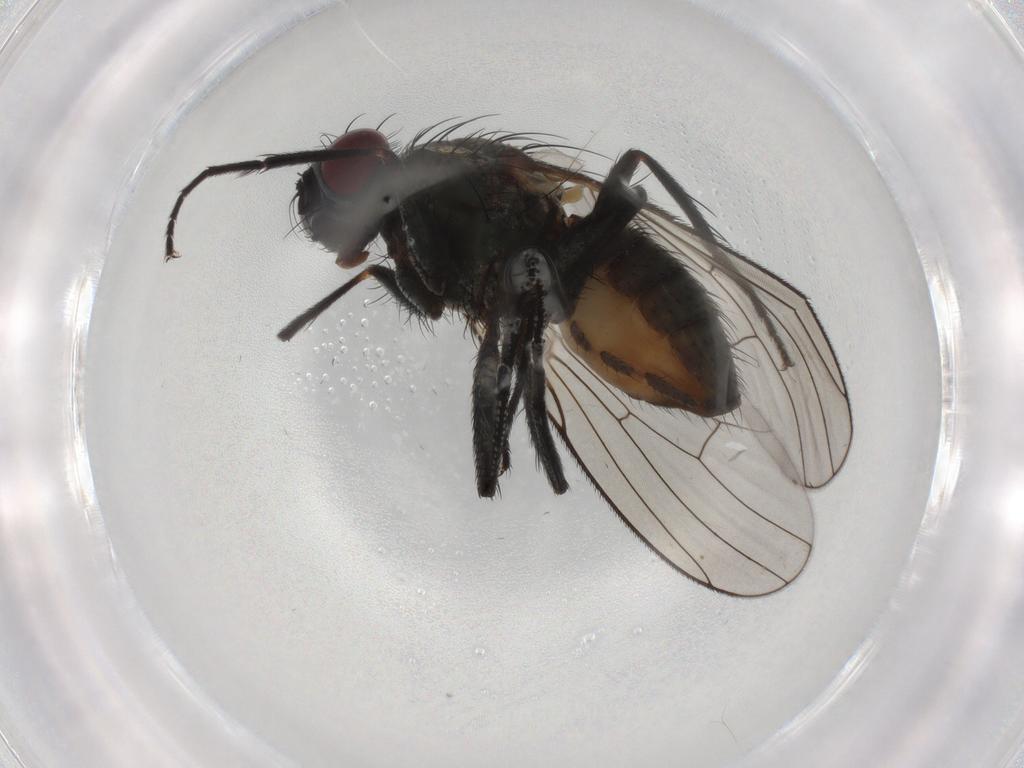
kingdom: Animalia
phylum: Arthropoda
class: Insecta
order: Diptera
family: Muscidae
